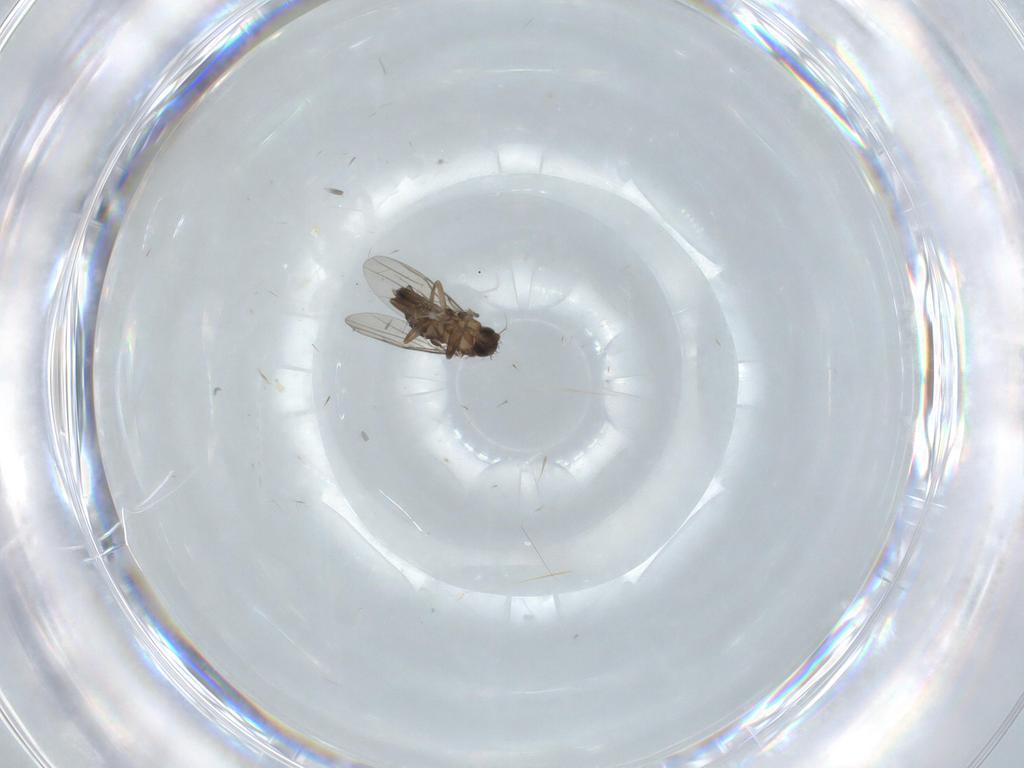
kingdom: Animalia
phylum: Arthropoda
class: Insecta
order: Diptera
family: Phoridae
